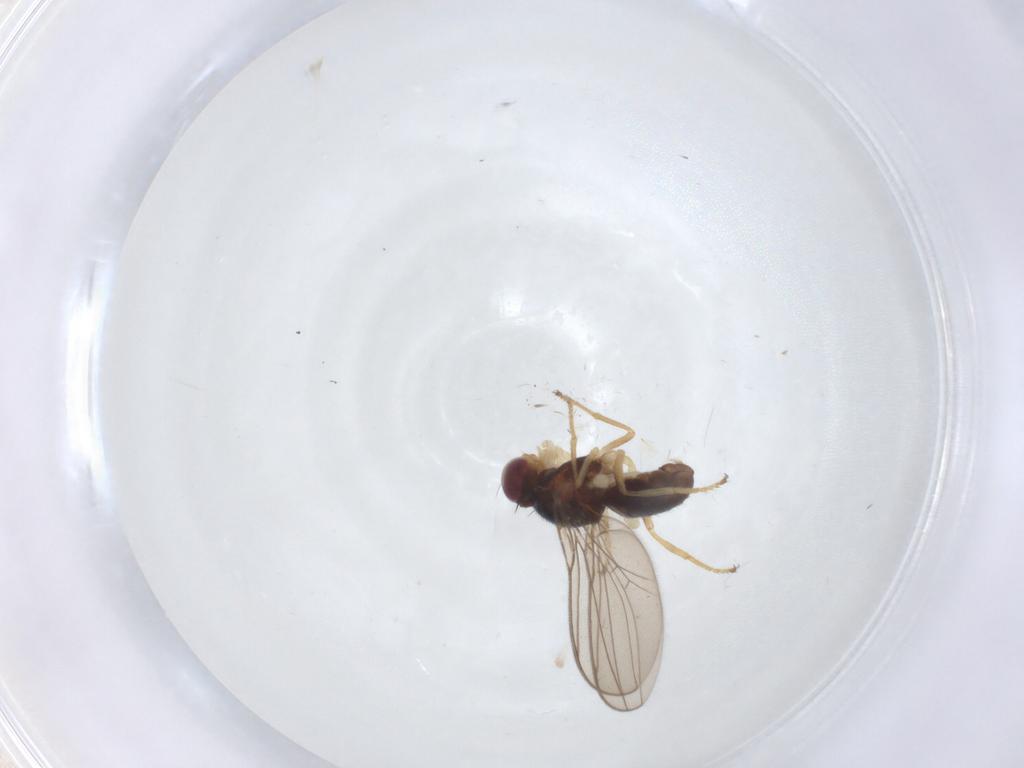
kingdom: Animalia
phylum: Arthropoda
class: Insecta
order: Diptera
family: Asteiidae
